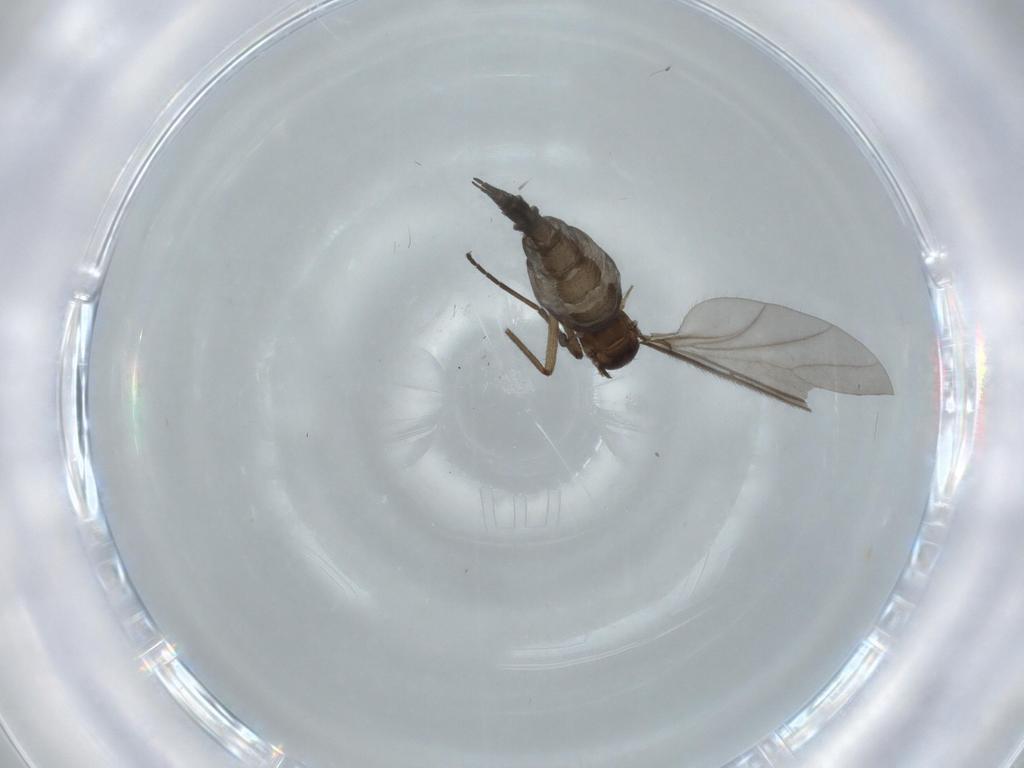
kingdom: Animalia
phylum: Arthropoda
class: Insecta
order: Diptera
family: Sciaridae
